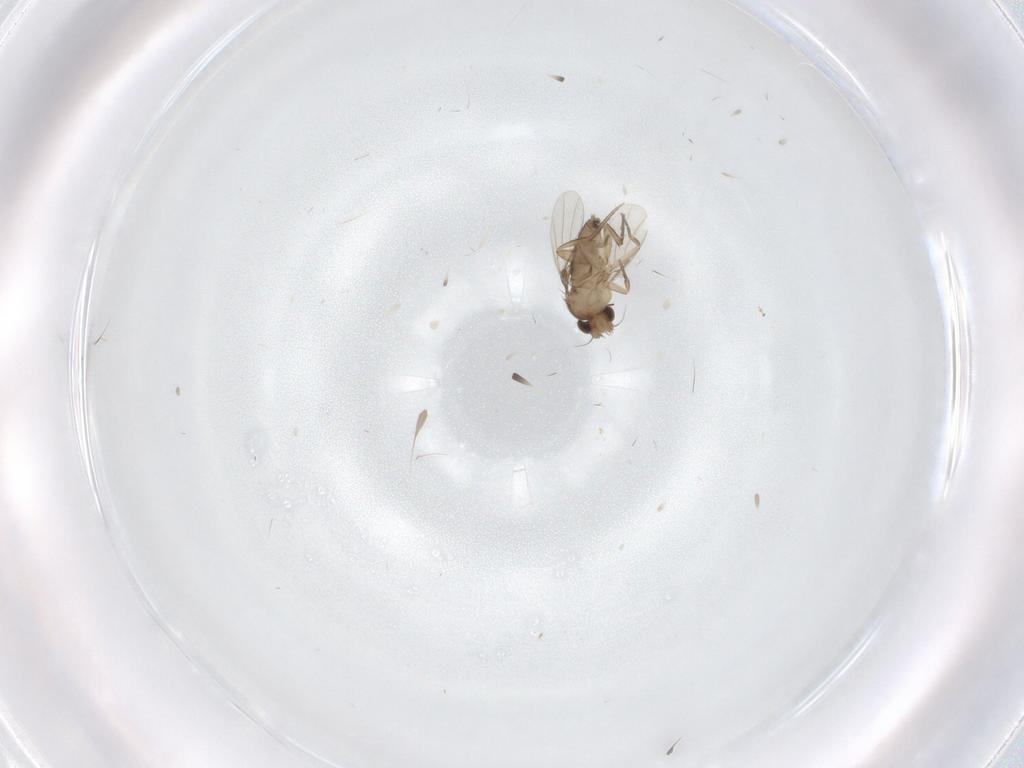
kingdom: Animalia
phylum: Arthropoda
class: Insecta
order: Diptera
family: Phoridae
